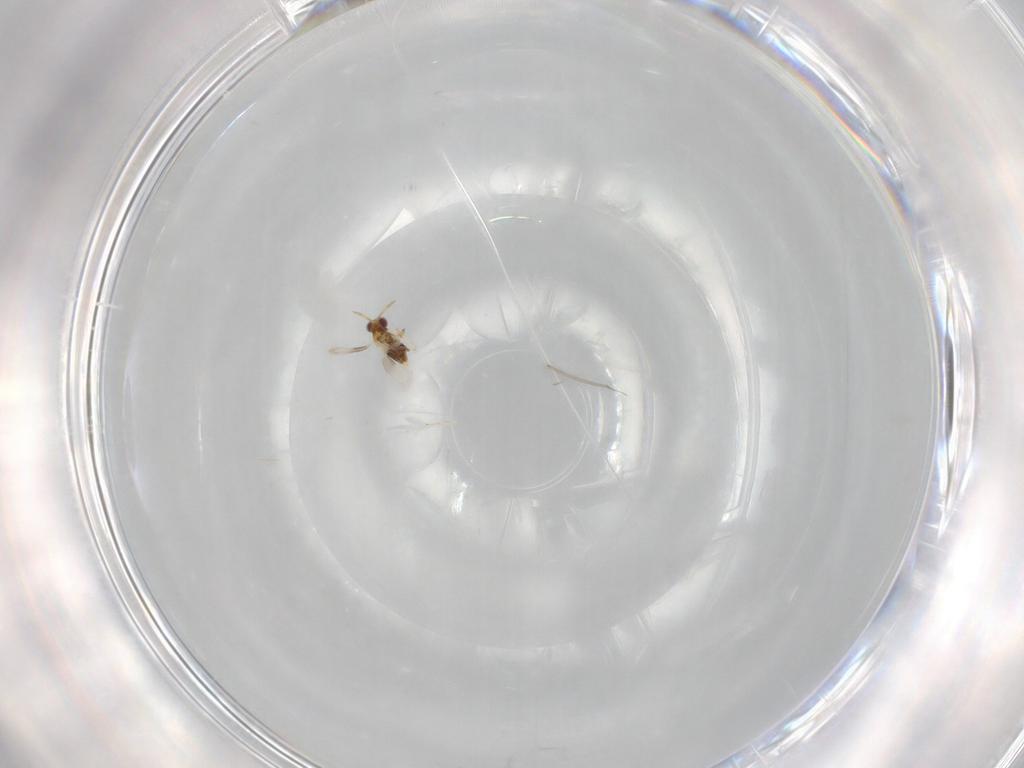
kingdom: Animalia
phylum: Arthropoda
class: Insecta
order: Hymenoptera
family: Aphelinidae
